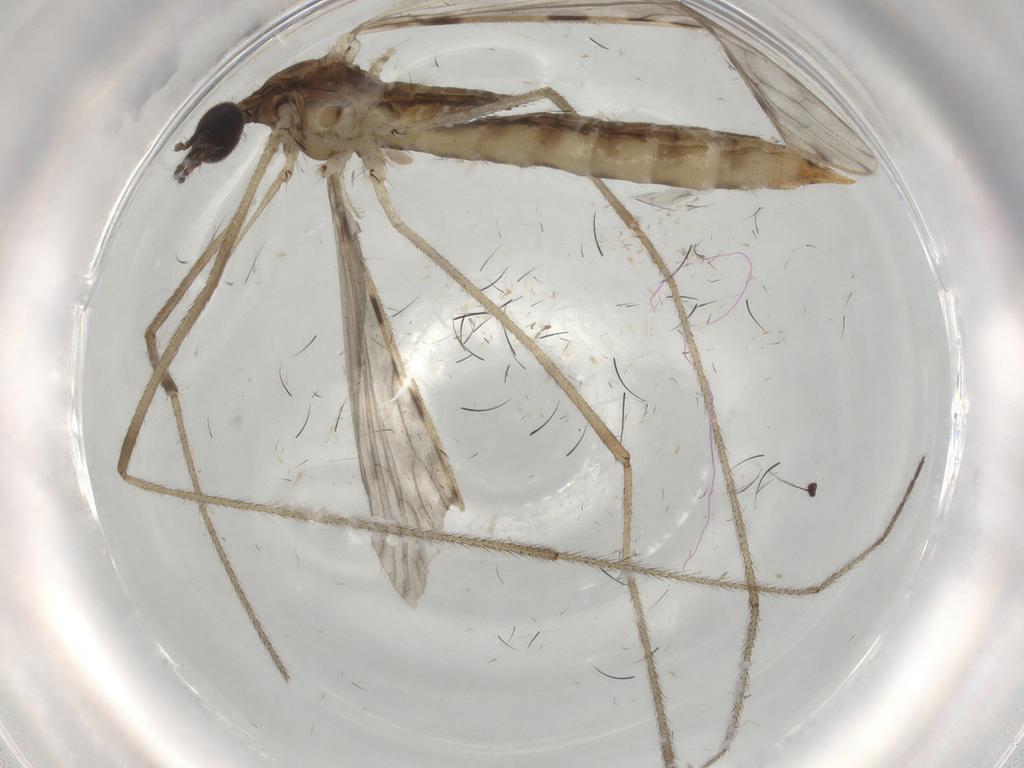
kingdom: Animalia
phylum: Arthropoda
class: Insecta
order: Diptera
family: Chironomidae
